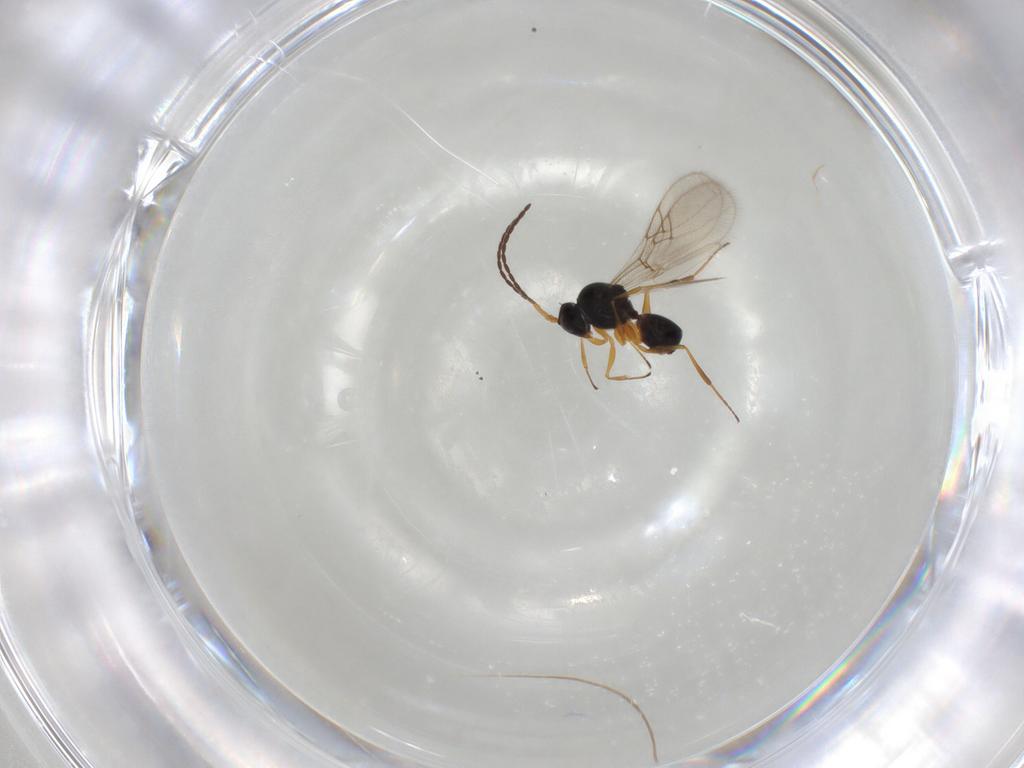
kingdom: Animalia
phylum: Arthropoda
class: Insecta
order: Hymenoptera
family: Figitidae
